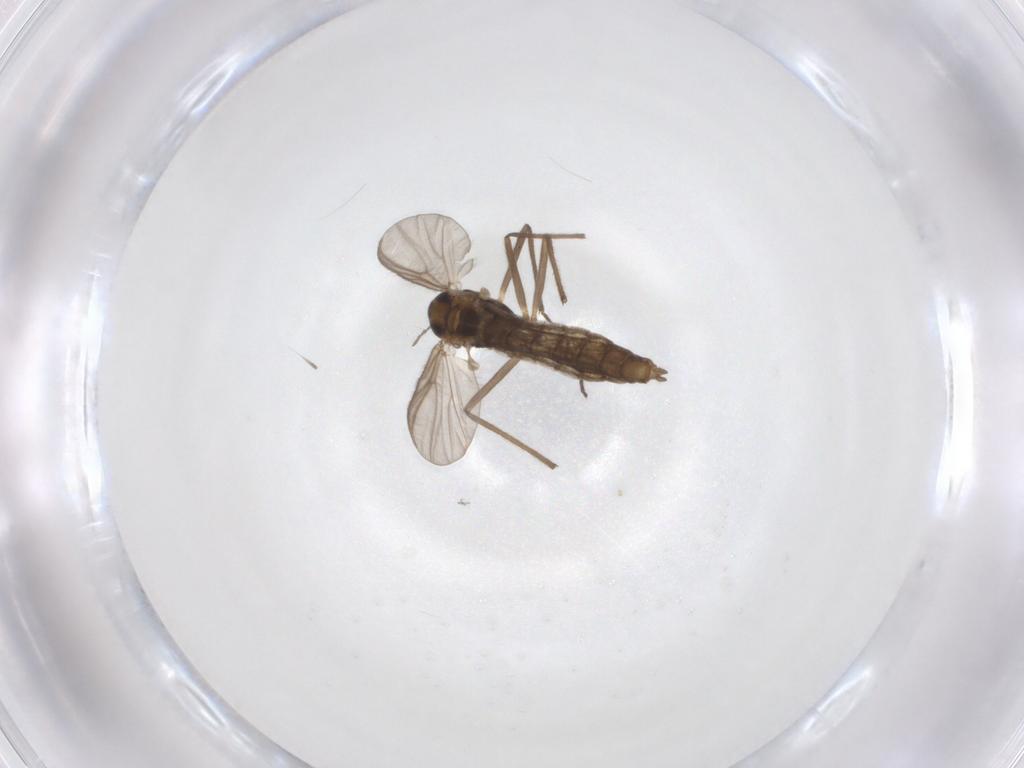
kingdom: Animalia
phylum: Arthropoda
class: Insecta
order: Diptera
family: Chironomidae
